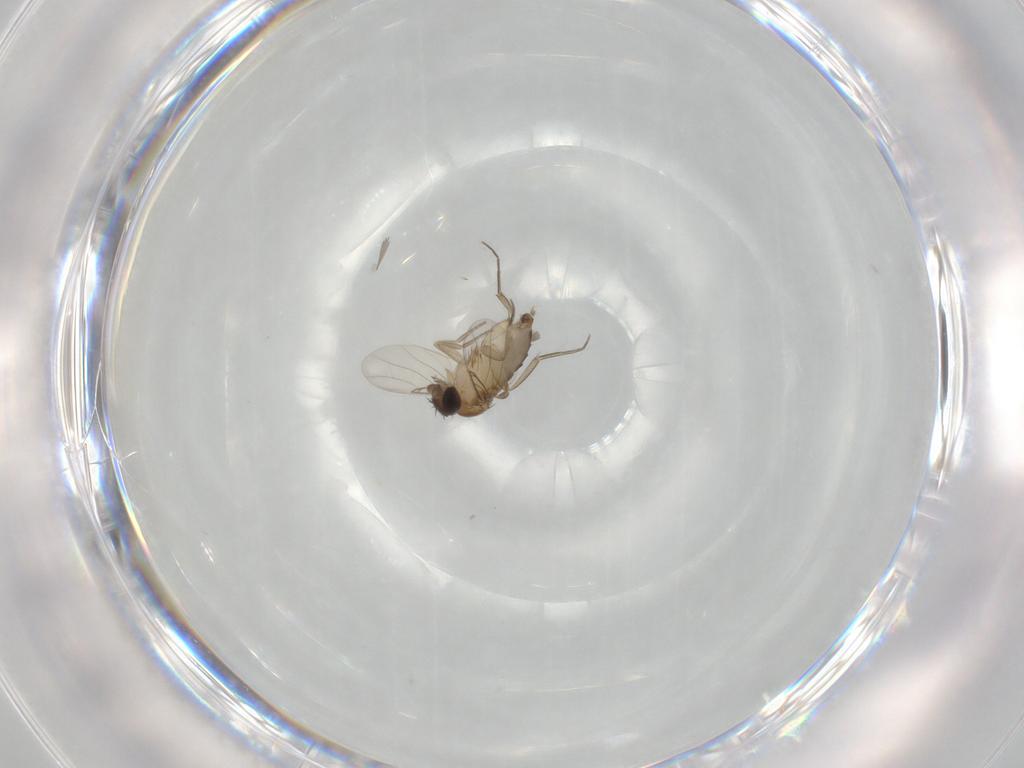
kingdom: Animalia
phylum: Arthropoda
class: Insecta
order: Diptera
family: Phoridae
